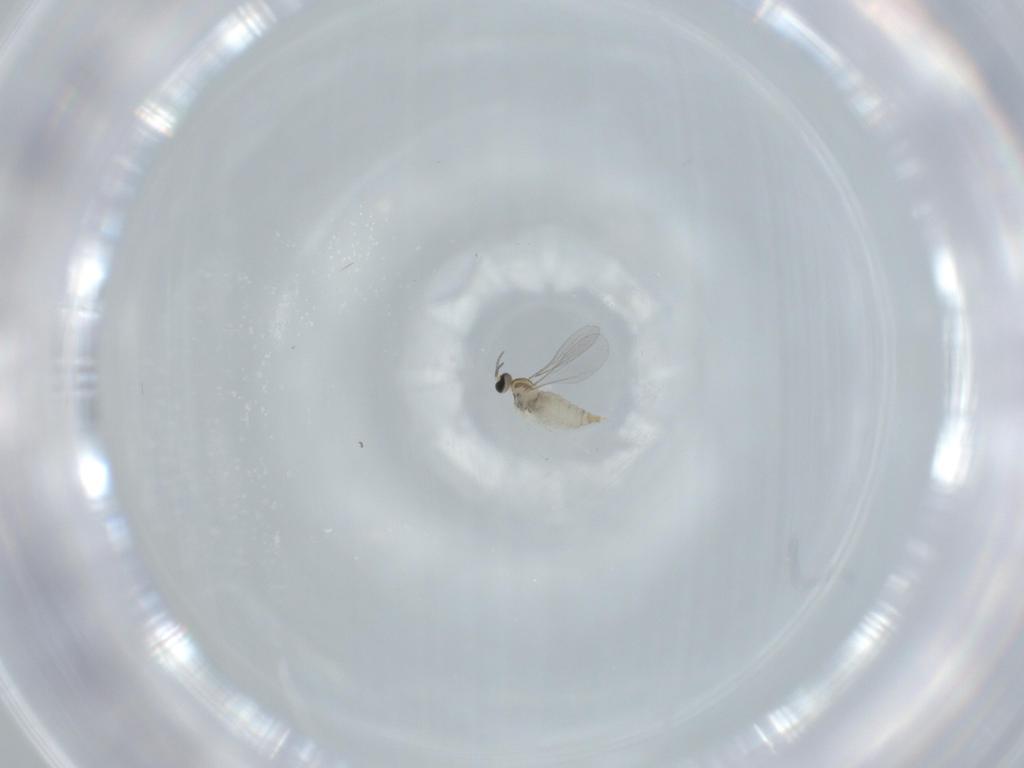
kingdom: Animalia
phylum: Arthropoda
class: Insecta
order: Diptera
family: Cecidomyiidae
